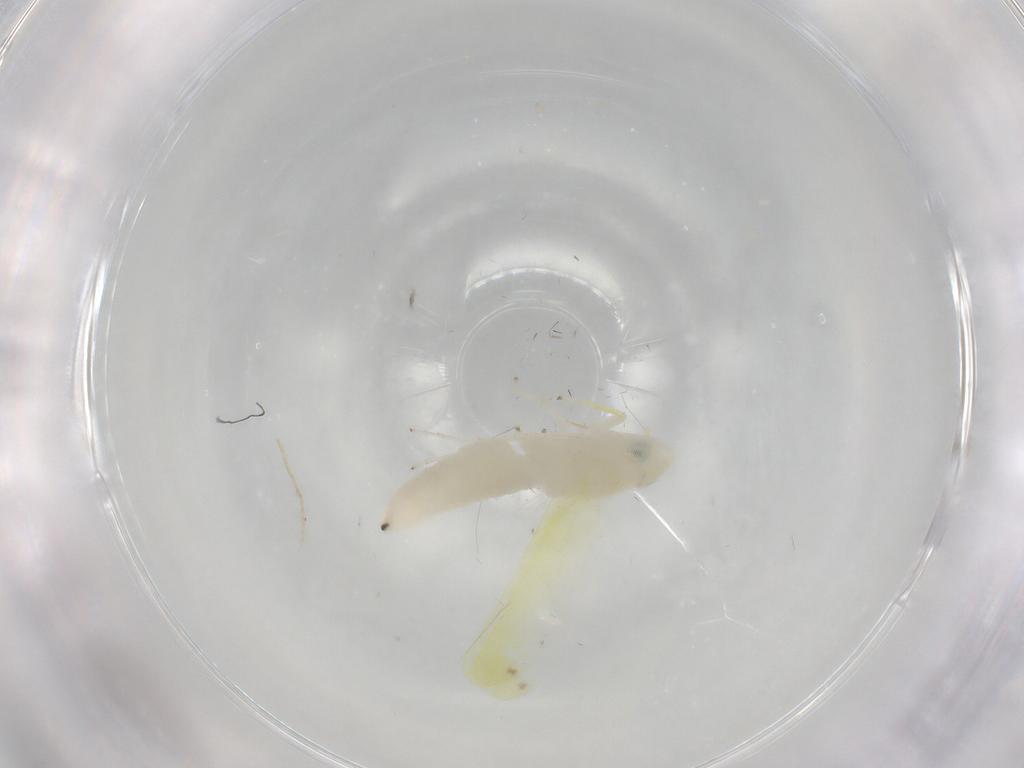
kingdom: Animalia
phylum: Arthropoda
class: Insecta
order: Hemiptera
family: Cicadellidae
